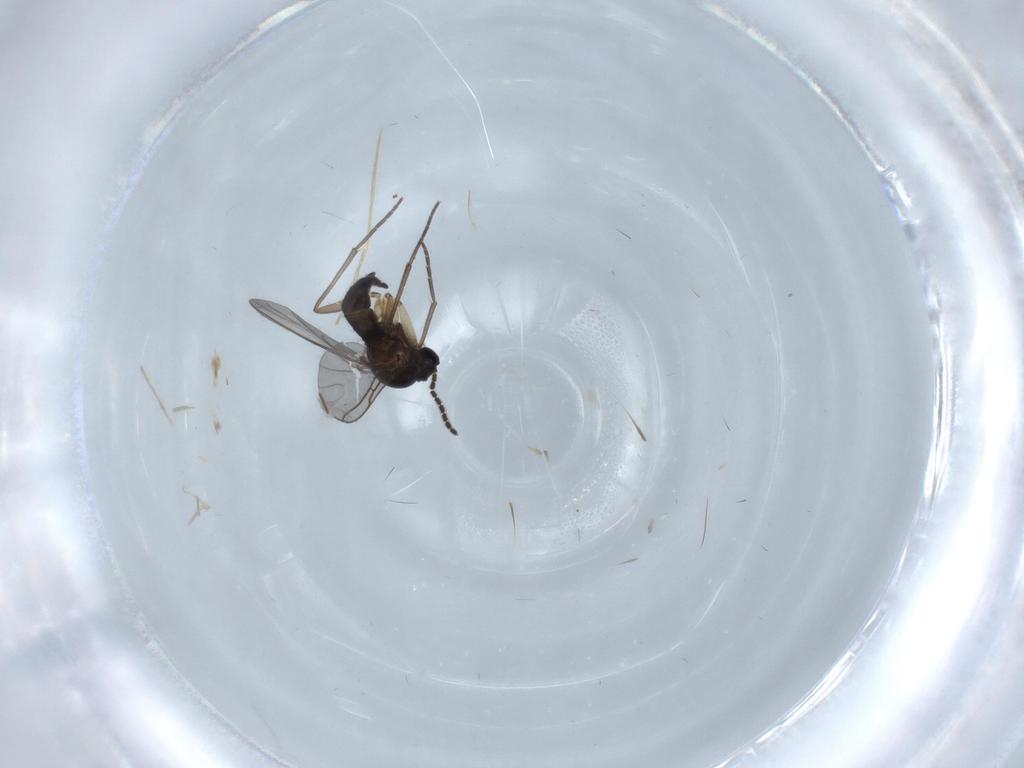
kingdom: Animalia
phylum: Arthropoda
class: Insecta
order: Diptera
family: Sciaridae
